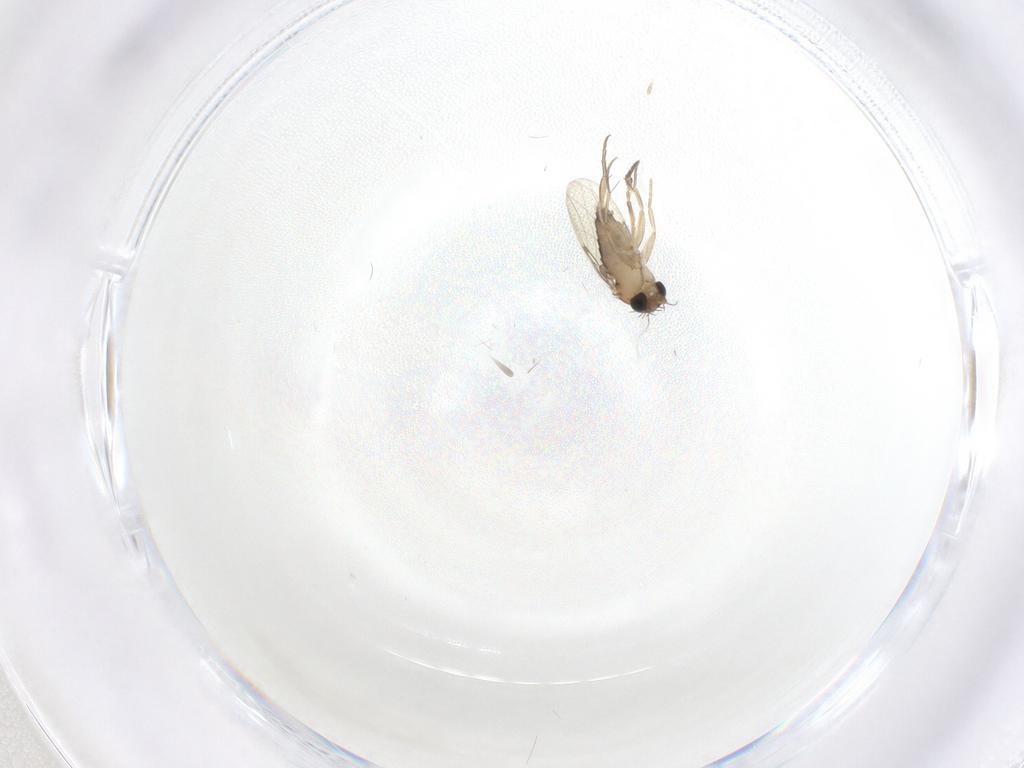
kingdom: Animalia
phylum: Arthropoda
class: Insecta
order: Diptera
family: Phoridae
